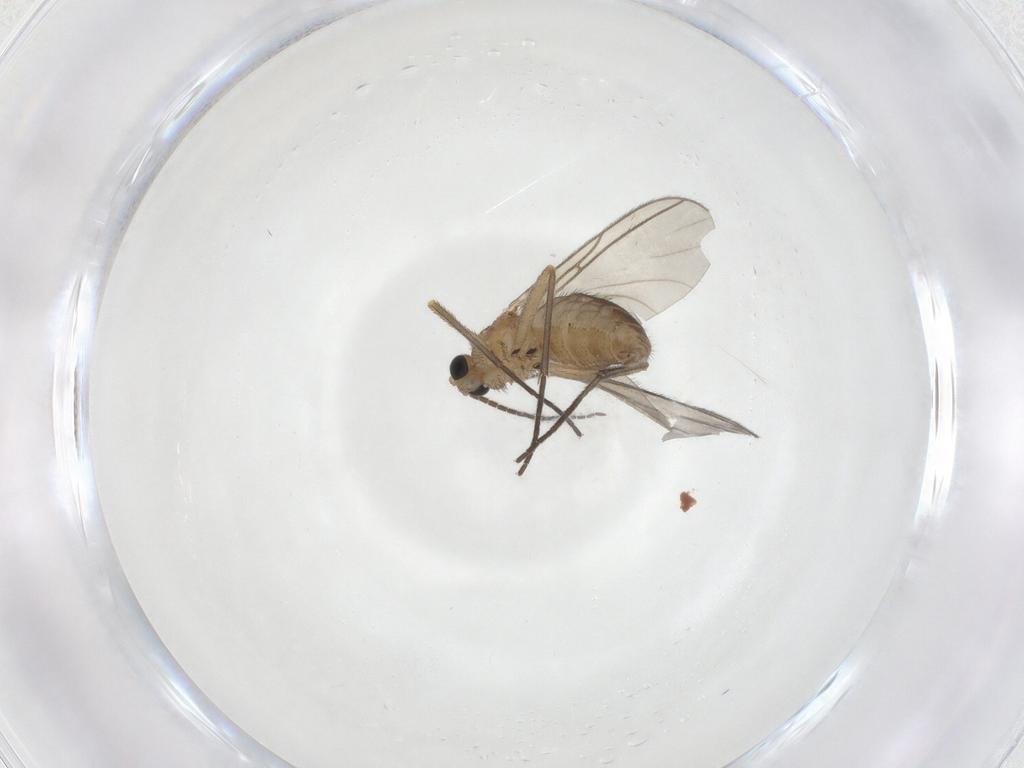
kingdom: Animalia
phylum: Arthropoda
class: Insecta
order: Diptera
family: Sciaridae
